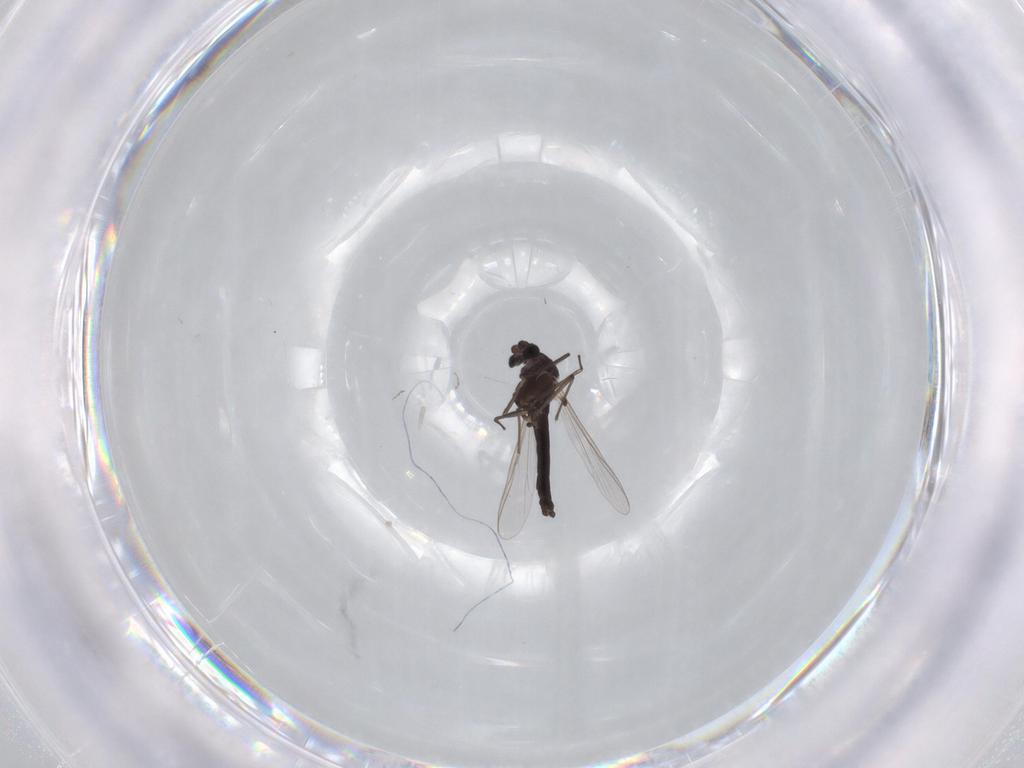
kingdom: Animalia
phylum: Arthropoda
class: Insecta
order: Diptera
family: Chironomidae
